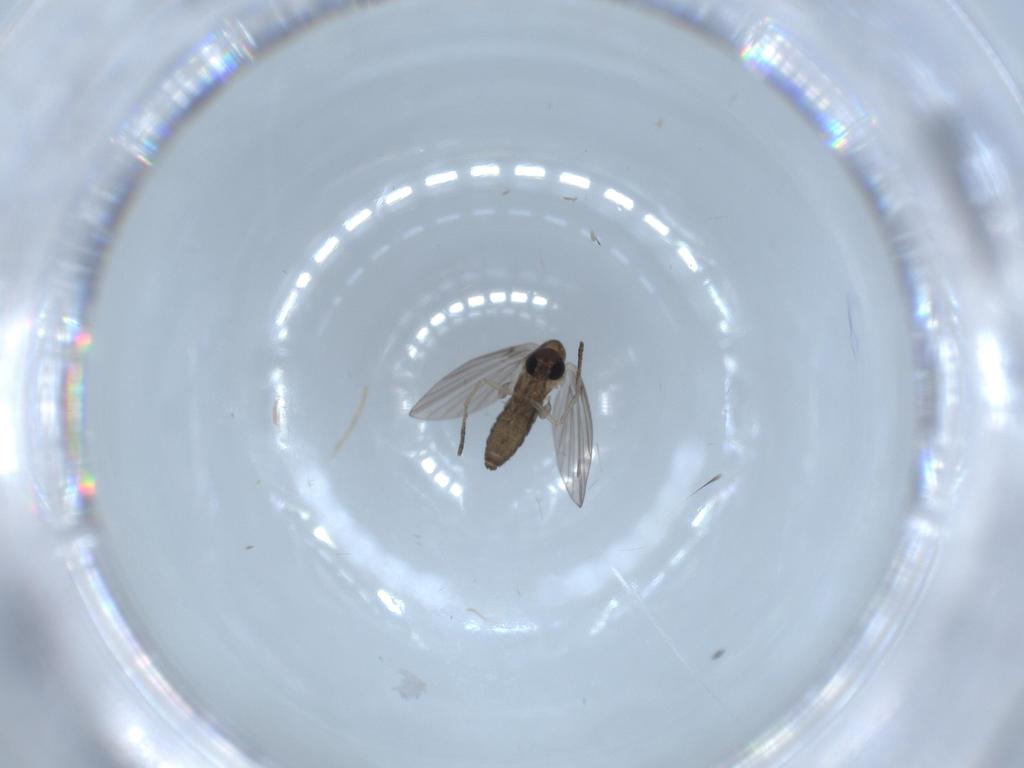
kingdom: Animalia
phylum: Arthropoda
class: Insecta
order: Diptera
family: Psychodidae
